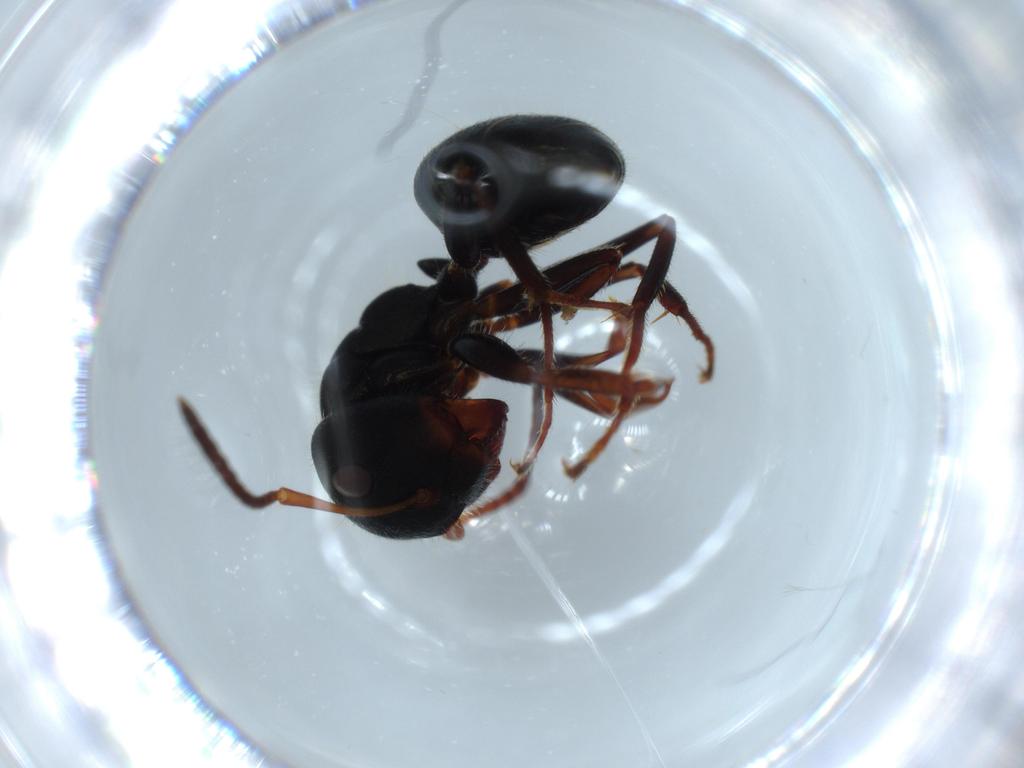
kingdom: Animalia
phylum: Arthropoda
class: Insecta
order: Hymenoptera
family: Formicidae
